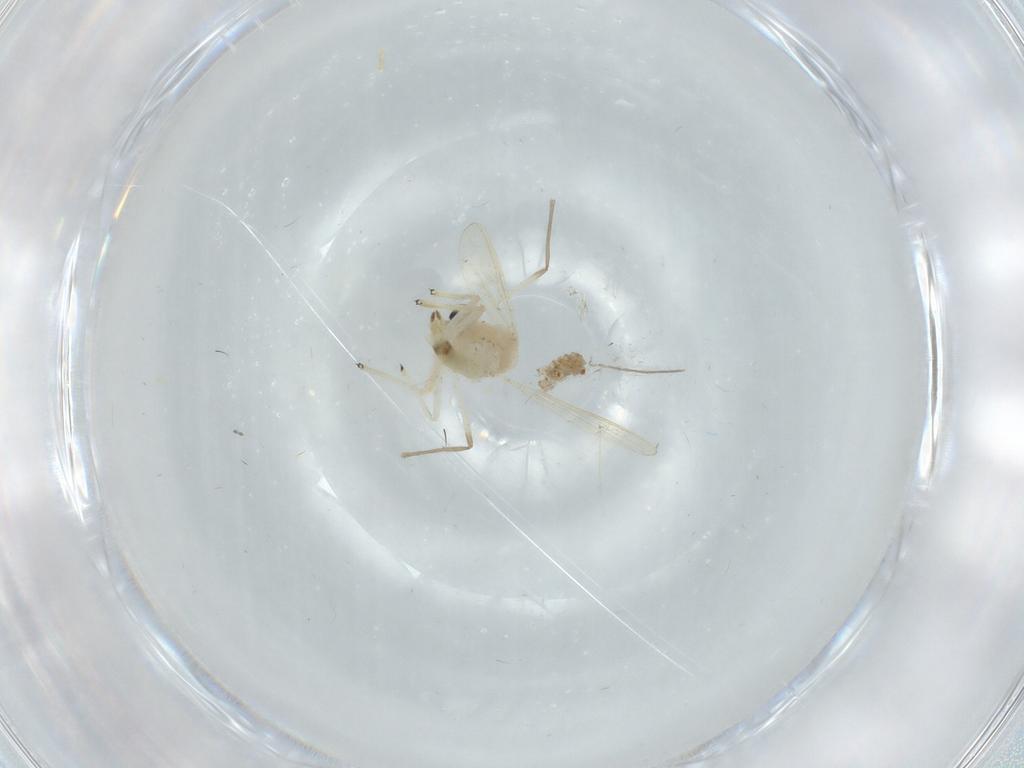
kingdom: Animalia
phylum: Arthropoda
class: Insecta
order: Diptera
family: Chironomidae
